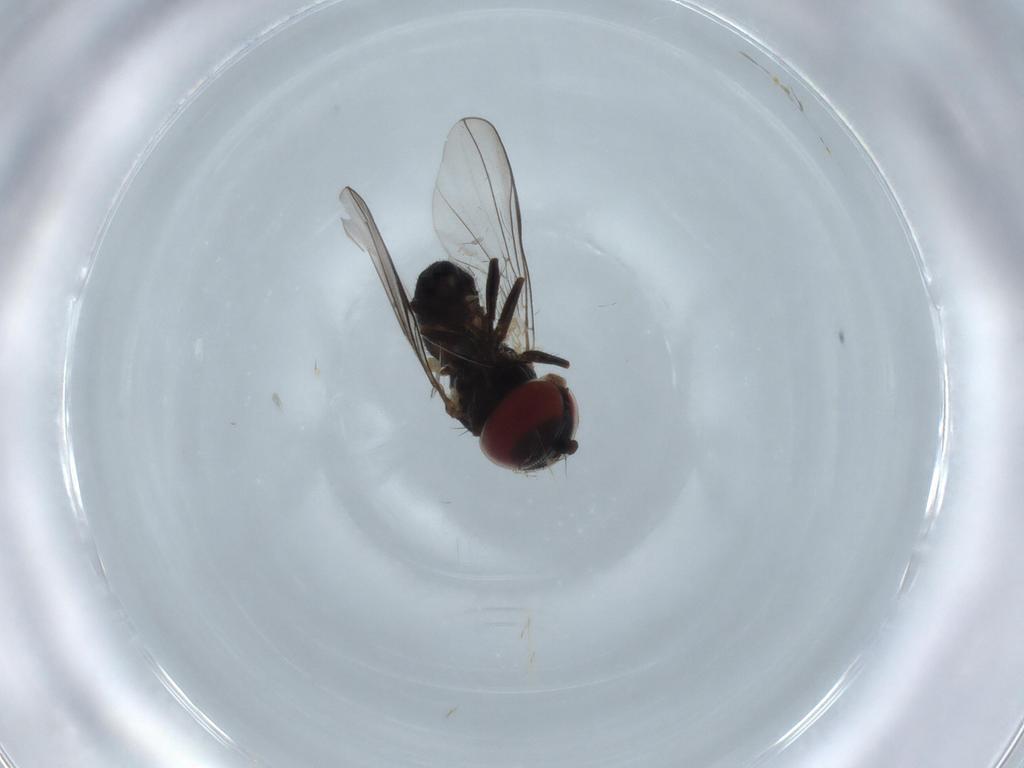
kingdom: Animalia
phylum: Arthropoda
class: Insecta
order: Diptera
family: Pipunculidae
